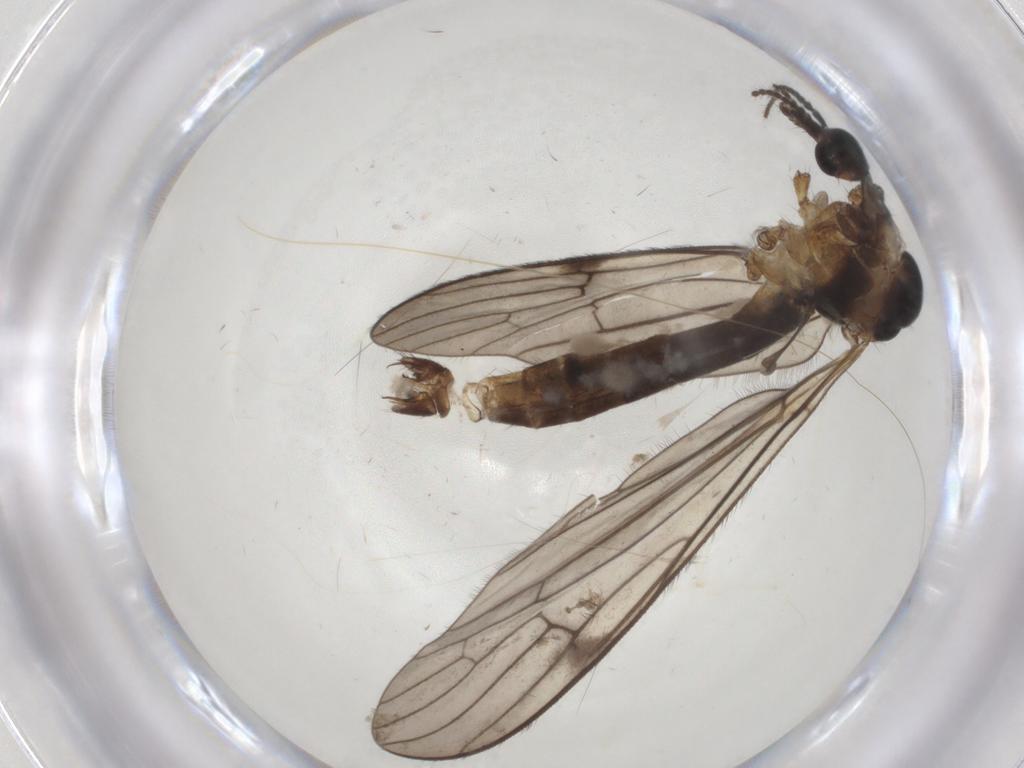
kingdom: Animalia
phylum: Arthropoda
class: Insecta
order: Diptera
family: Limoniidae
